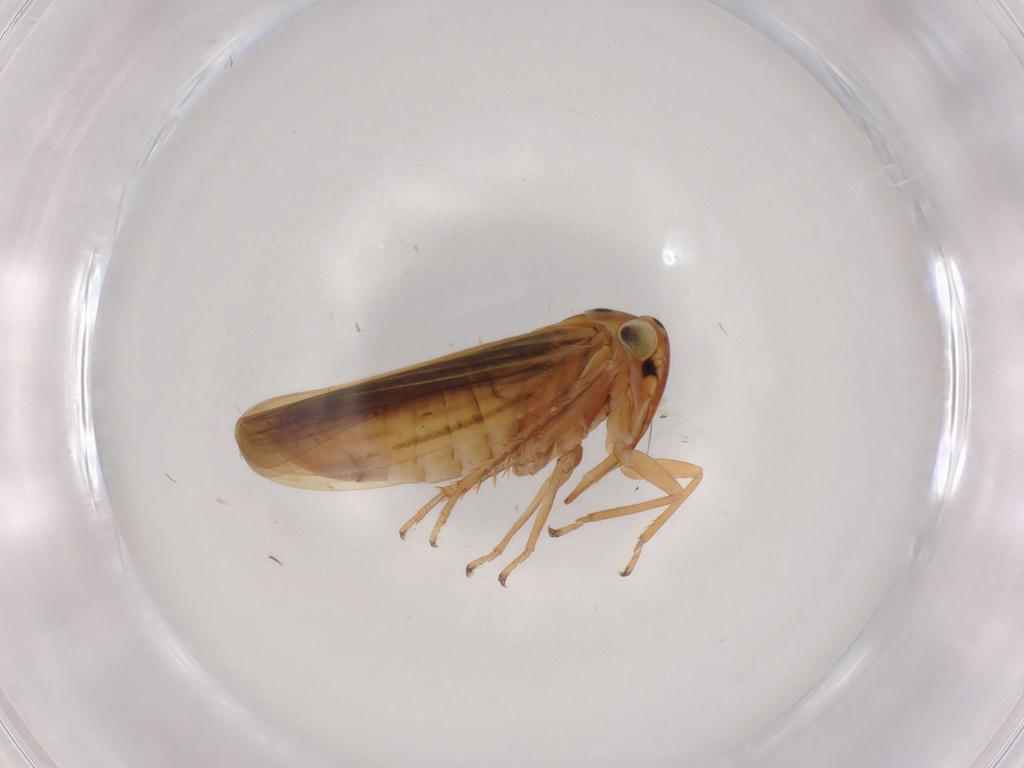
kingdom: Animalia
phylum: Arthropoda
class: Insecta
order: Hemiptera
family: Cicadellidae
